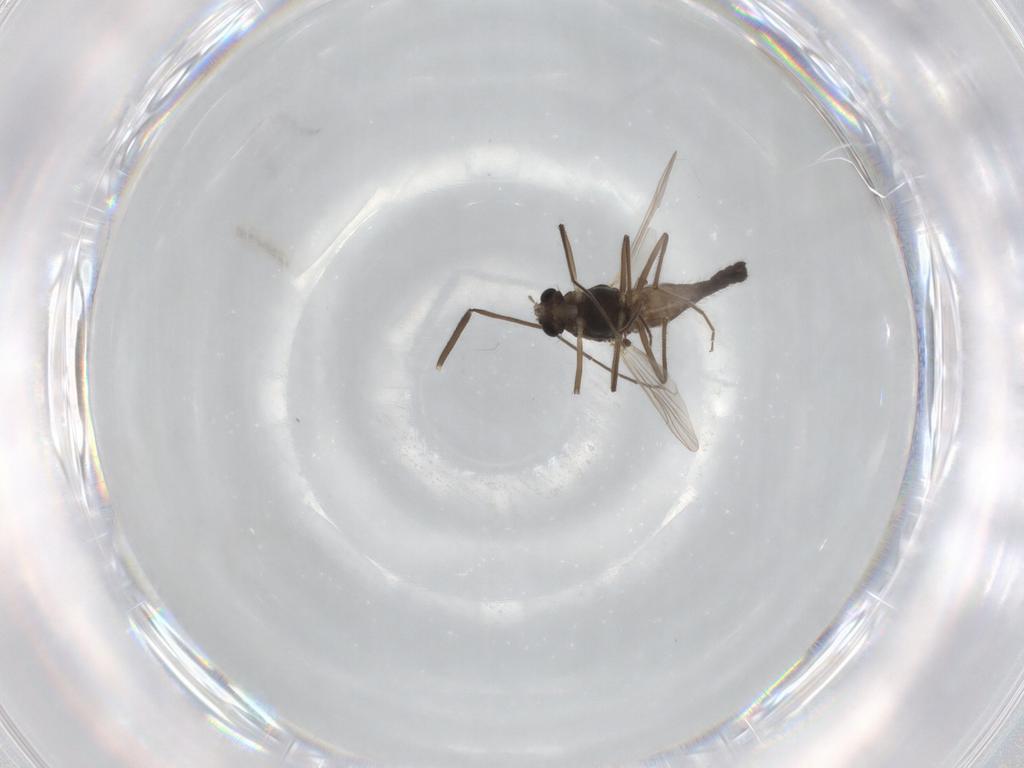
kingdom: Animalia
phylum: Arthropoda
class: Insecta
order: Diptera
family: Chironomidae
